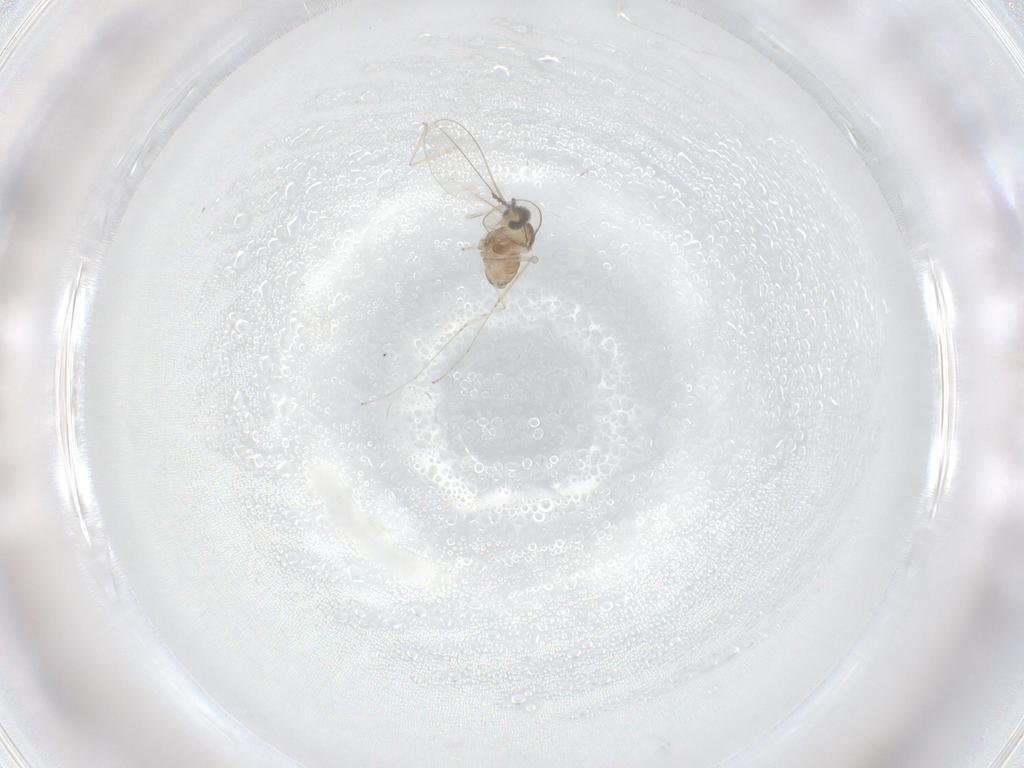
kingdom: Animalia
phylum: Arthropoda
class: Insecta
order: Diptera
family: Cecidomyiidae
